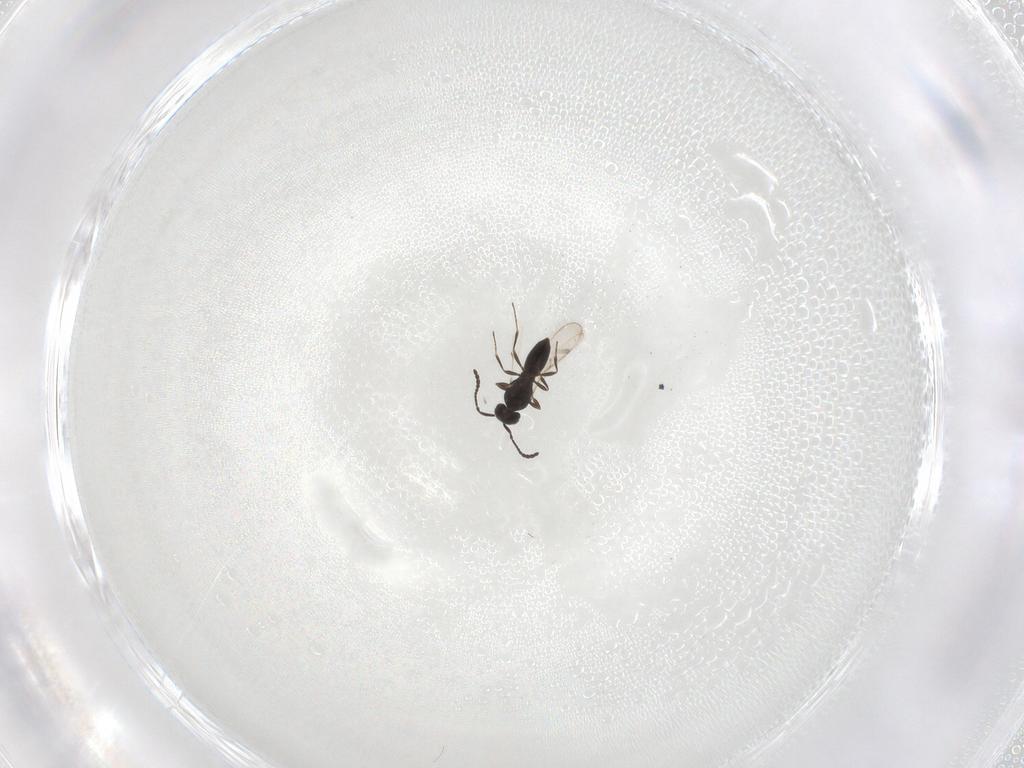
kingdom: Animalia
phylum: Arthropoda
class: Insecta
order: Hymenoptera
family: Scelionidae
